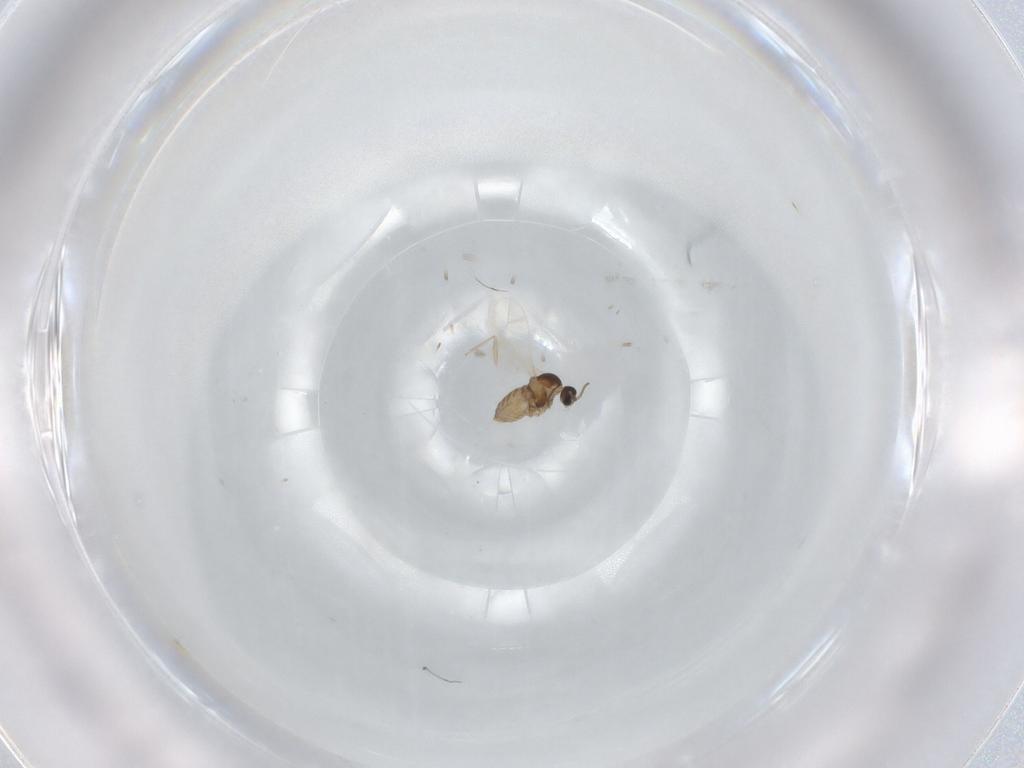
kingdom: Animalia
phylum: Arthropoda
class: Insecta
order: Diptera
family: Cecidomyiidae
